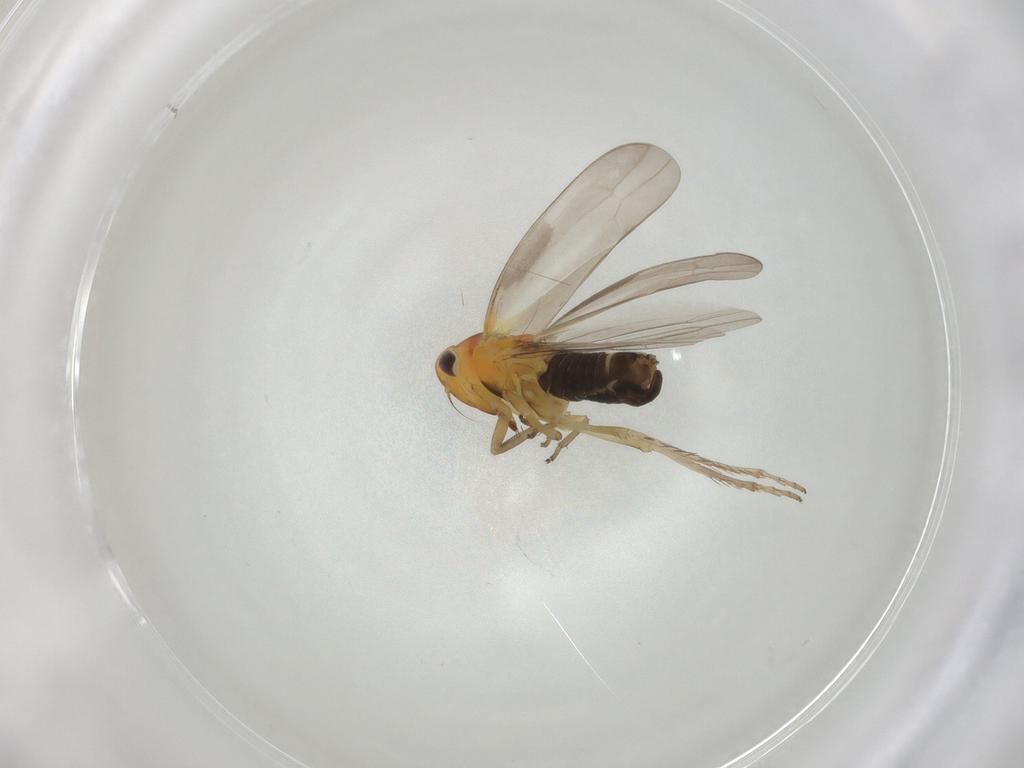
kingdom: Animalia
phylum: Arthropoda
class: Insecta
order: Hemiptera
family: Cicadellidae
